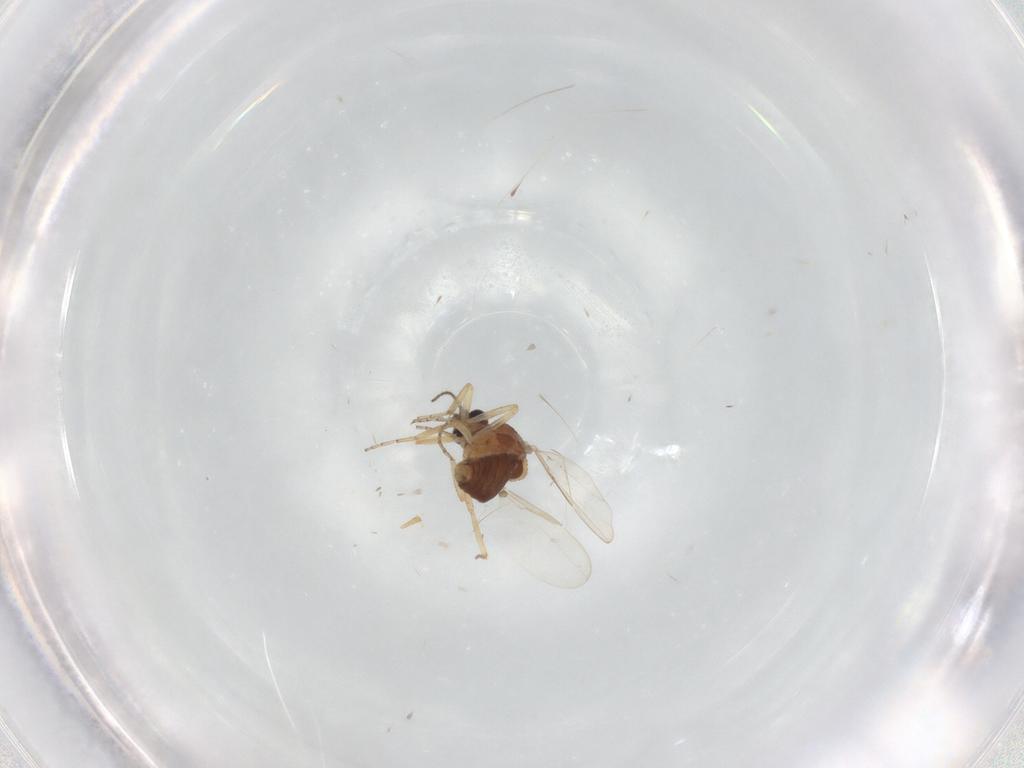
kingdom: Animalia
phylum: Arthropoda
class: Insecta
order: Diptera
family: Ceratopogonidae
